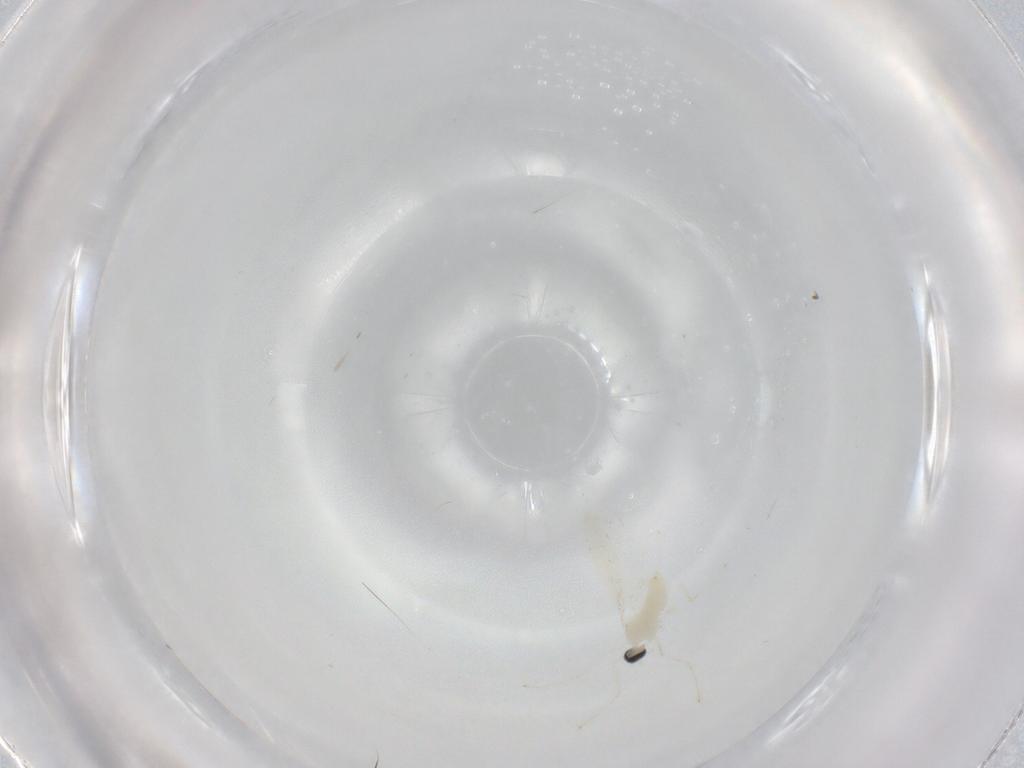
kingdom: Animalia
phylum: Arthropoda
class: Insecta
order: Diptera
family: Cecidomyiidae
